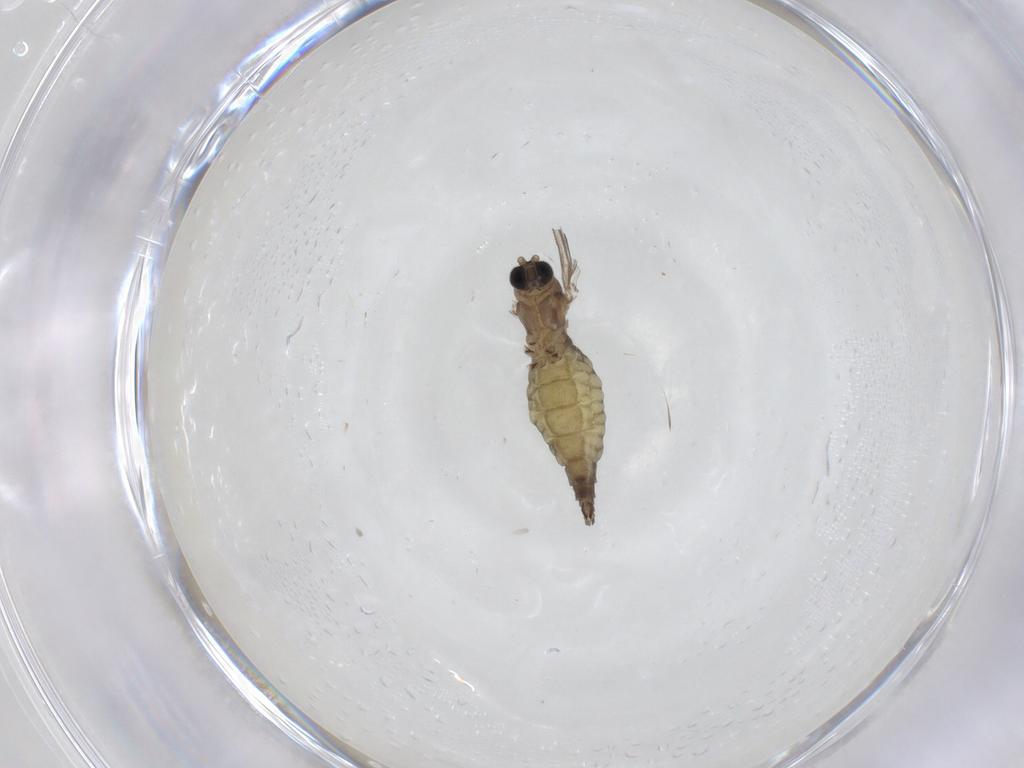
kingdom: Animalia
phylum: Arthropoda
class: Insecta
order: Diptera
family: Sciaridae
